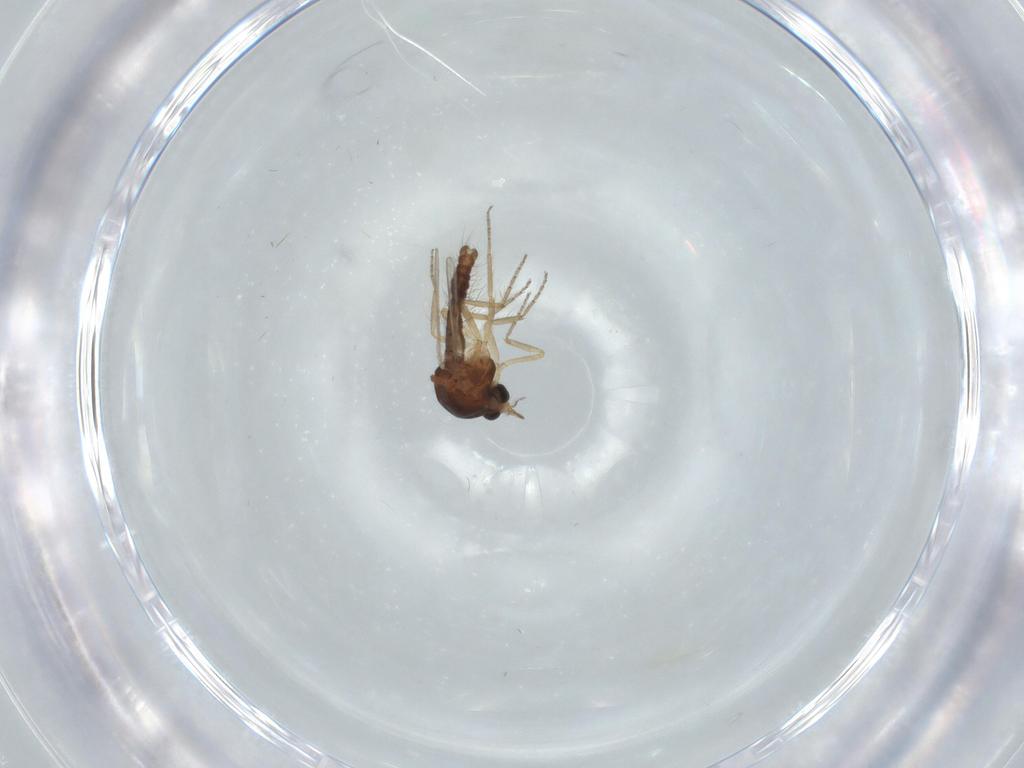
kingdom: Animalia
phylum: Arthropoda
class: Insecta
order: Diptera
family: Ceratopogonidae
